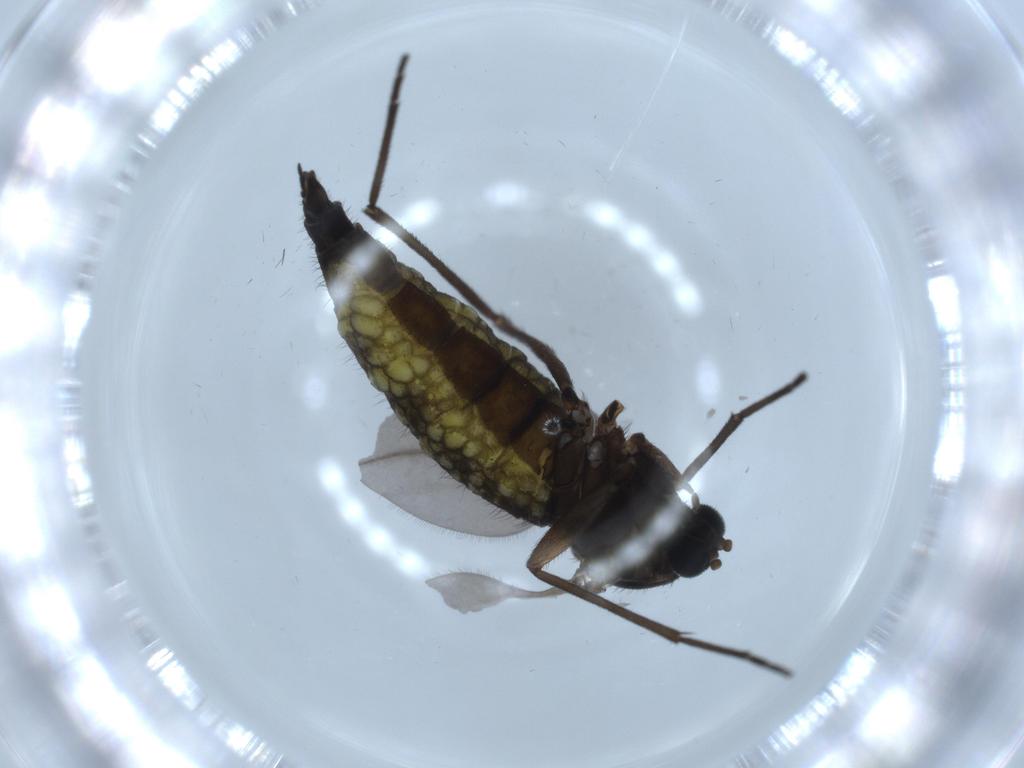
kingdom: Animalia
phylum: Arthropoda
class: Insecta
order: Diptera
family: Sciaridae
